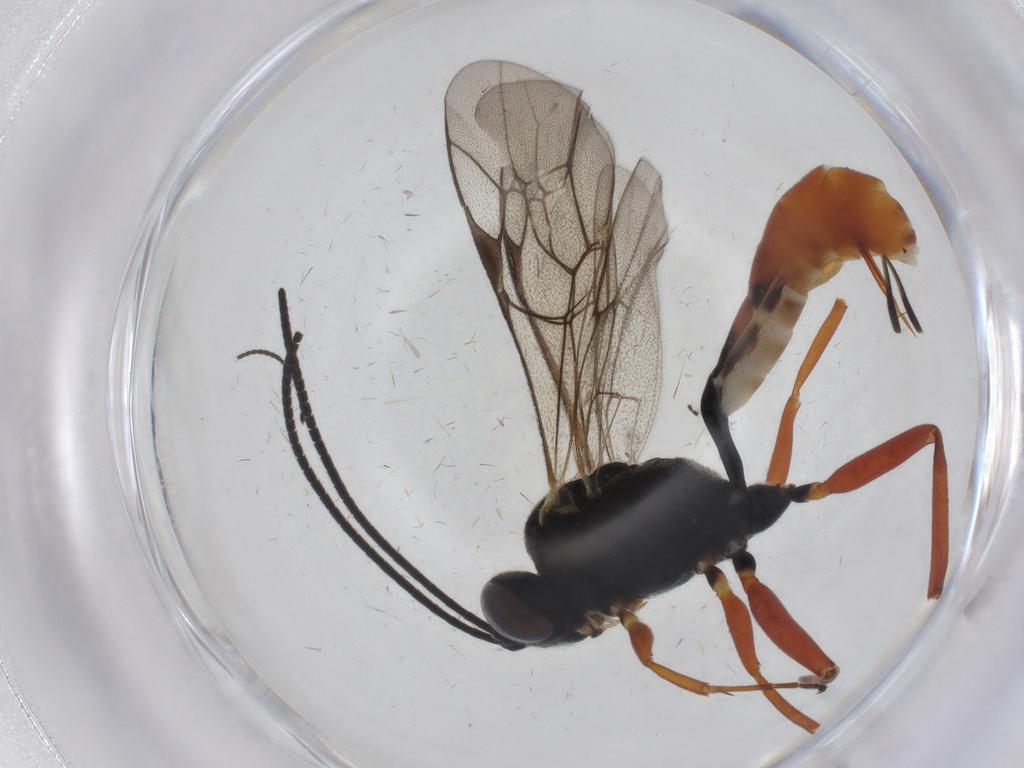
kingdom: Animalia
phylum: Arthropoda
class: Insecta
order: Hymenoptera
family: Ichneumonidae
